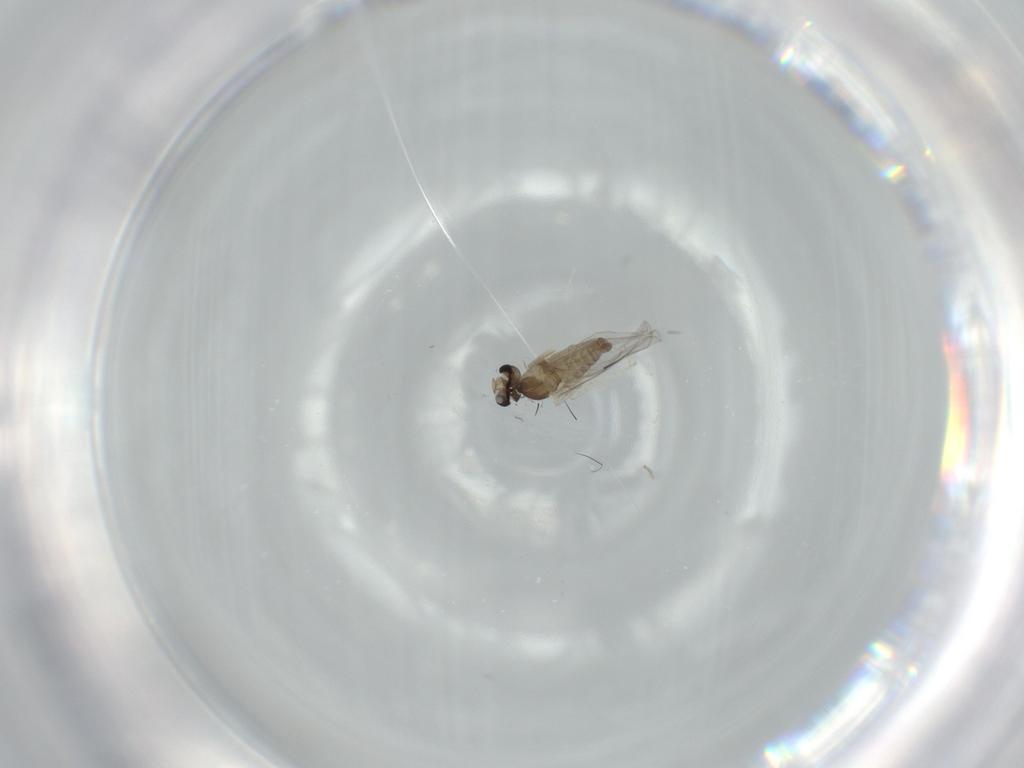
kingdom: Animalia
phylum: Arthropoda
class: Insecta
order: Diptera
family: Cecidomyiidae
